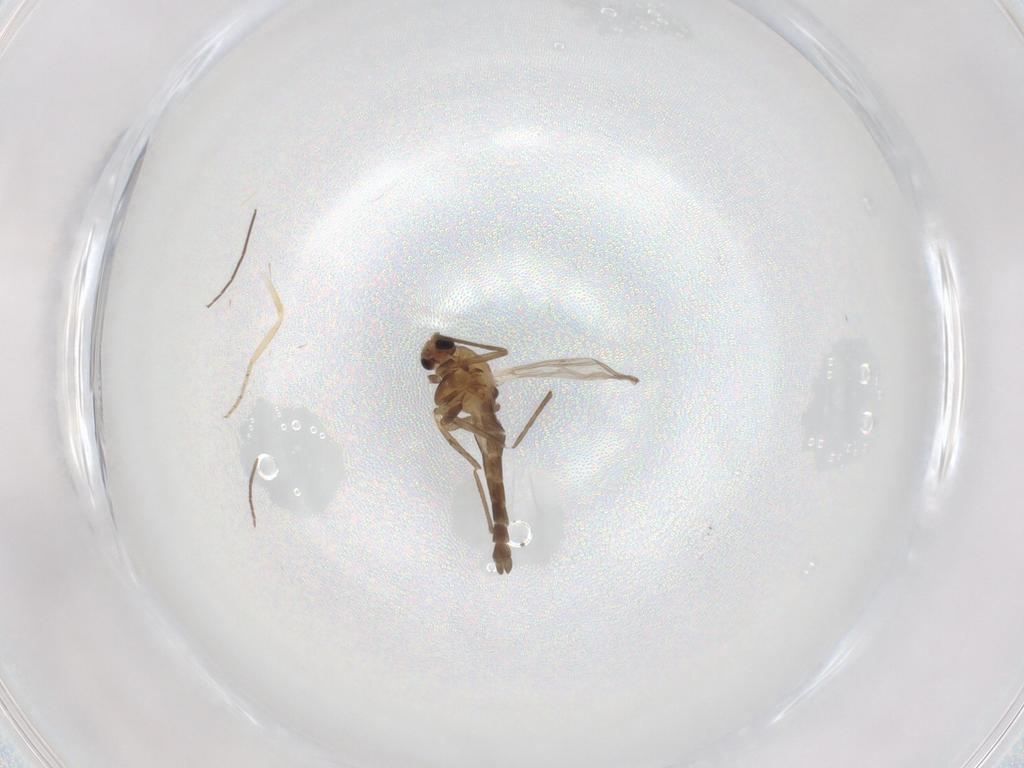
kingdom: Animalia
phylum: Arthropoda
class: Insecta
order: Diptera
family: Chironomidae
